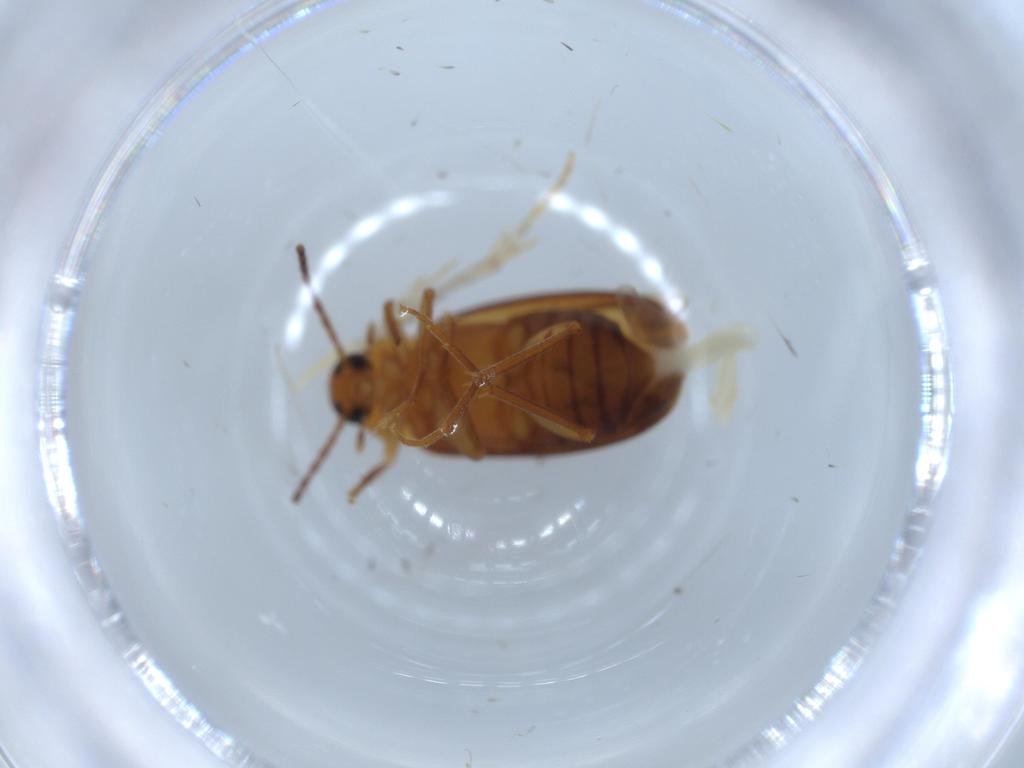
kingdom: Animalia
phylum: Arthropoda
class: Insecta
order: Coleoptera
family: Scraptiidae
